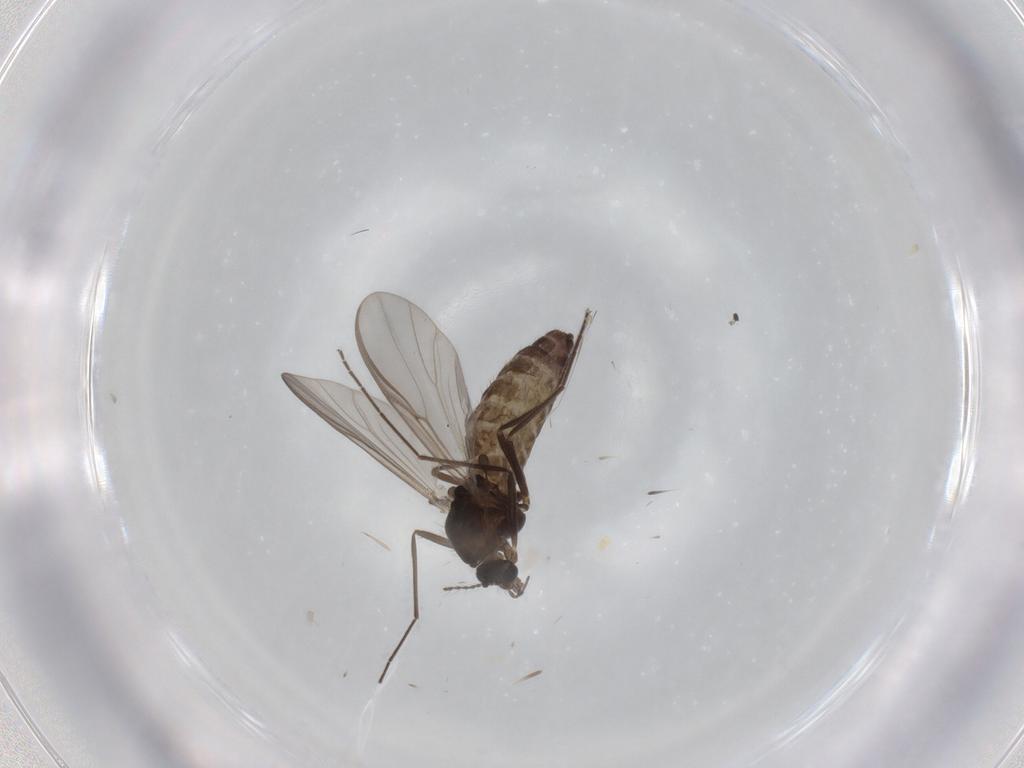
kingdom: Animalia
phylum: Arthropoda
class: Insecta
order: Diptera
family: Chironomidae
